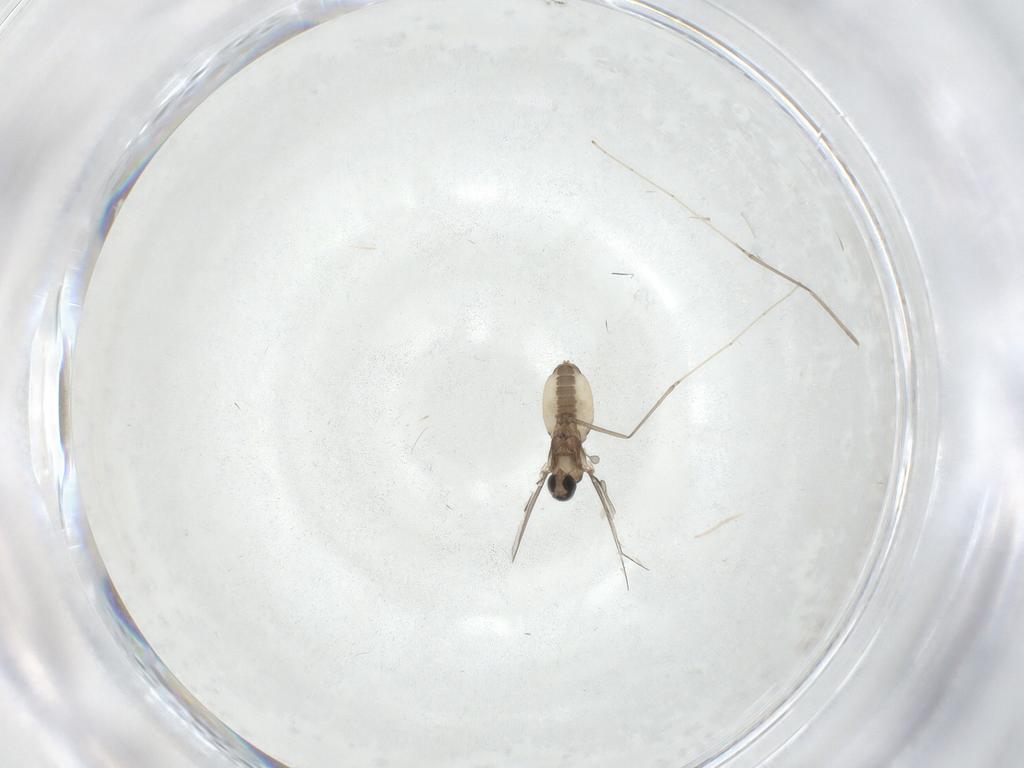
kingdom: Animalia
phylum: Arthropoda
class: Insecta
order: Diptera
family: Cecidomyiidae
